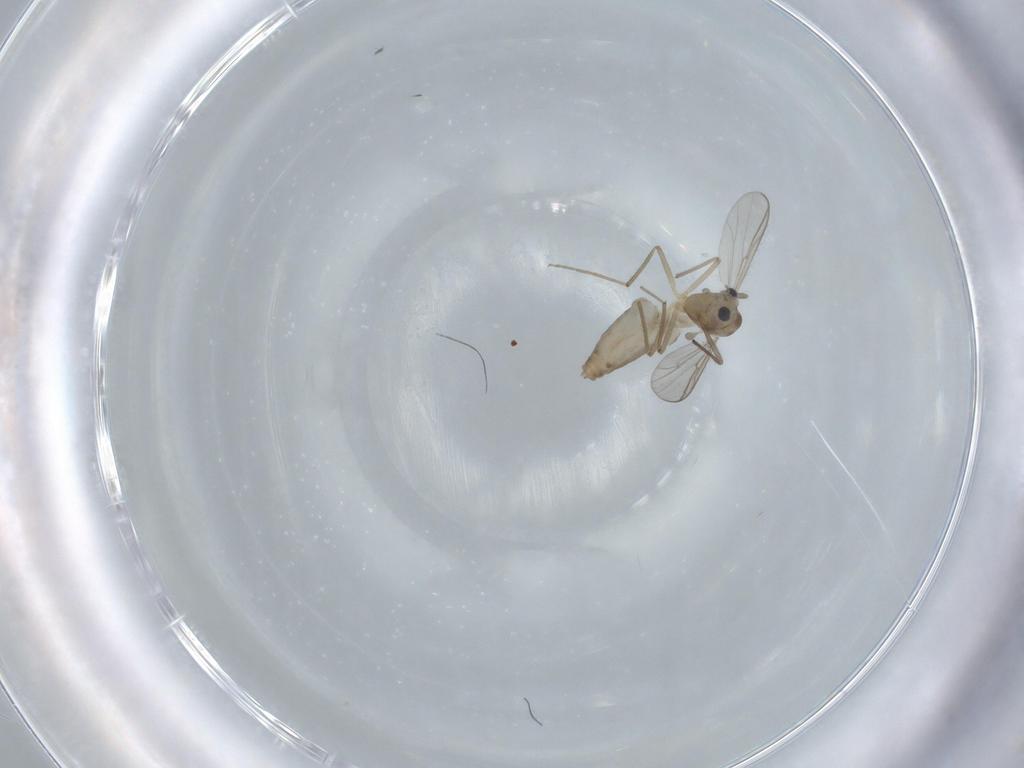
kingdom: Animalia
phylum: Arthropoda
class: Insecta
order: Diptera
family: Chironomidae
